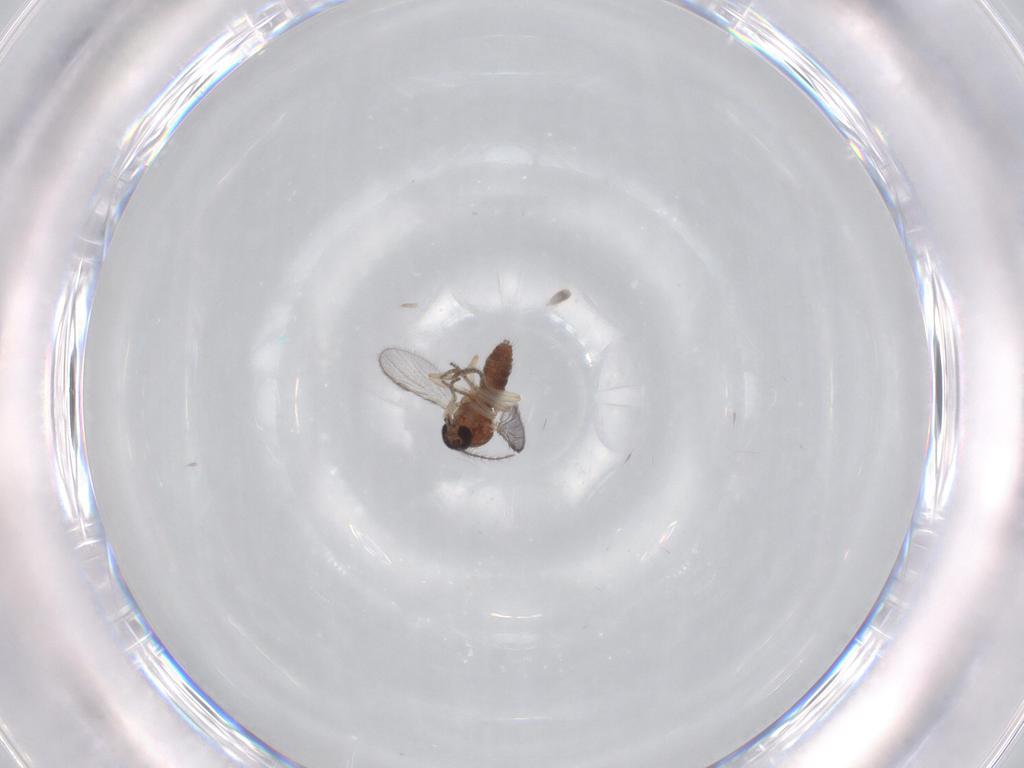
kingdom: Animalia
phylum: Arthropoda
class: Insecta
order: Diptera
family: Ceratopogonidae
